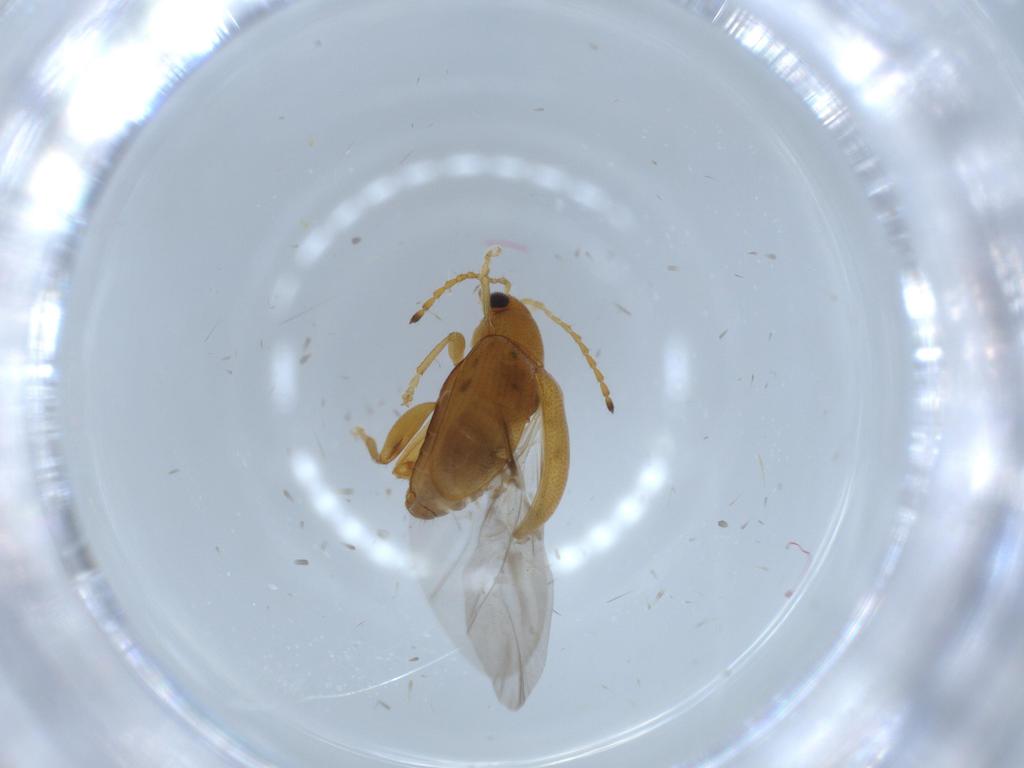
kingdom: Animalia
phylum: Arthropoda
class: Insecta
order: Coleoptera
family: Chrysomelidae
